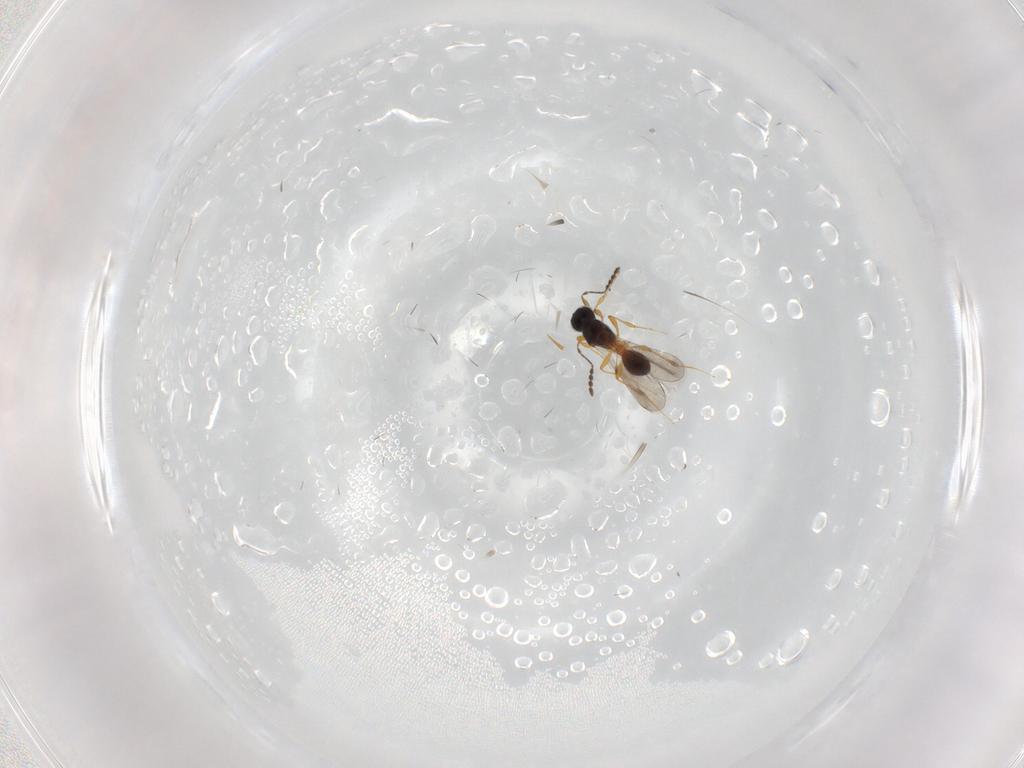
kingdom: Animalia
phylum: Arthropoda
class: Insecta
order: Hymenoptera
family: Platygastridae
